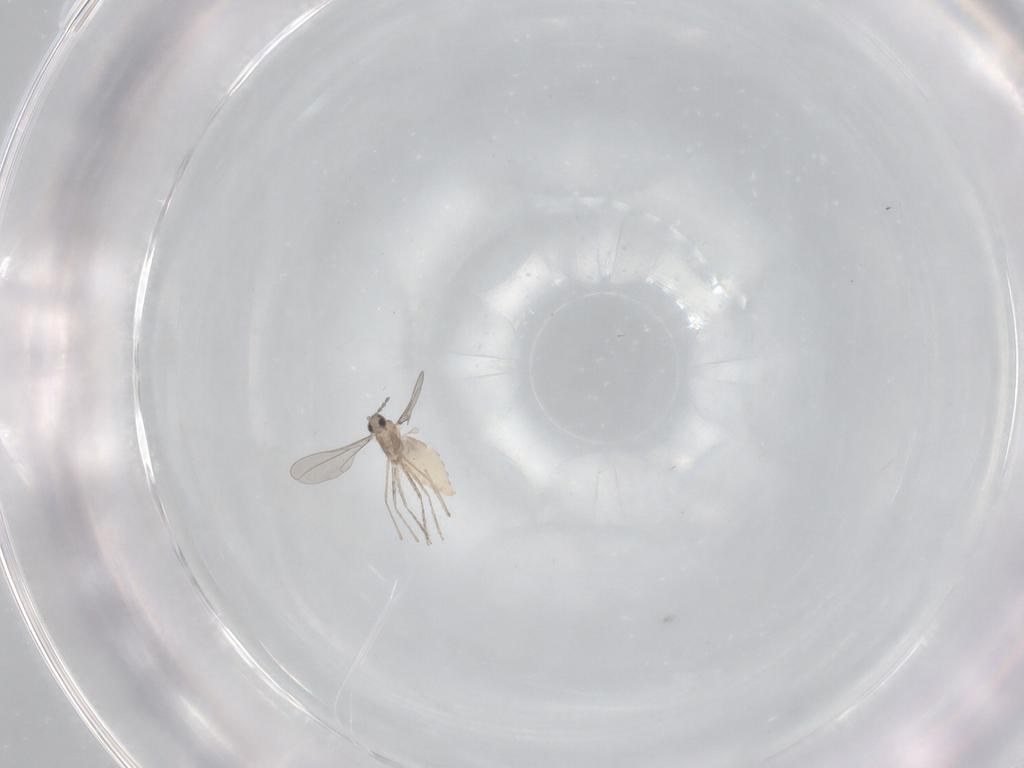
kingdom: Animalia
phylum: Arthropoda
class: Insecta
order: Diptera
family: Cecidomyiidae
